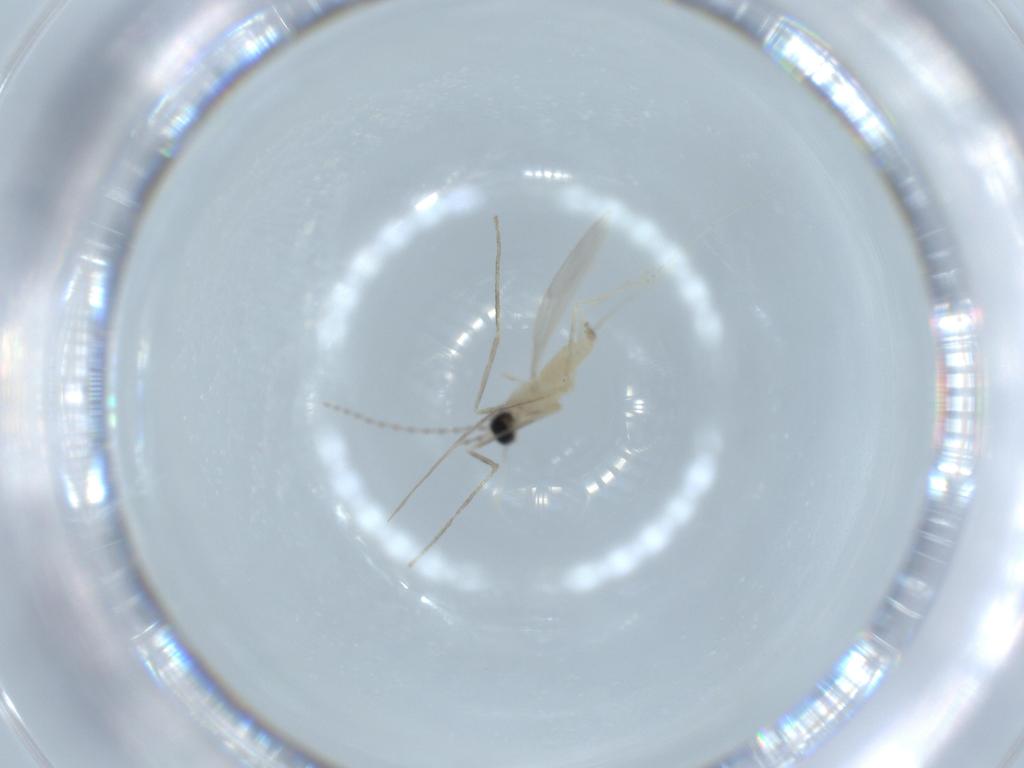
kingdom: Animalia
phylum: Arthropoda
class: Insecta
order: Diptera
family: Cecidomyiidae
